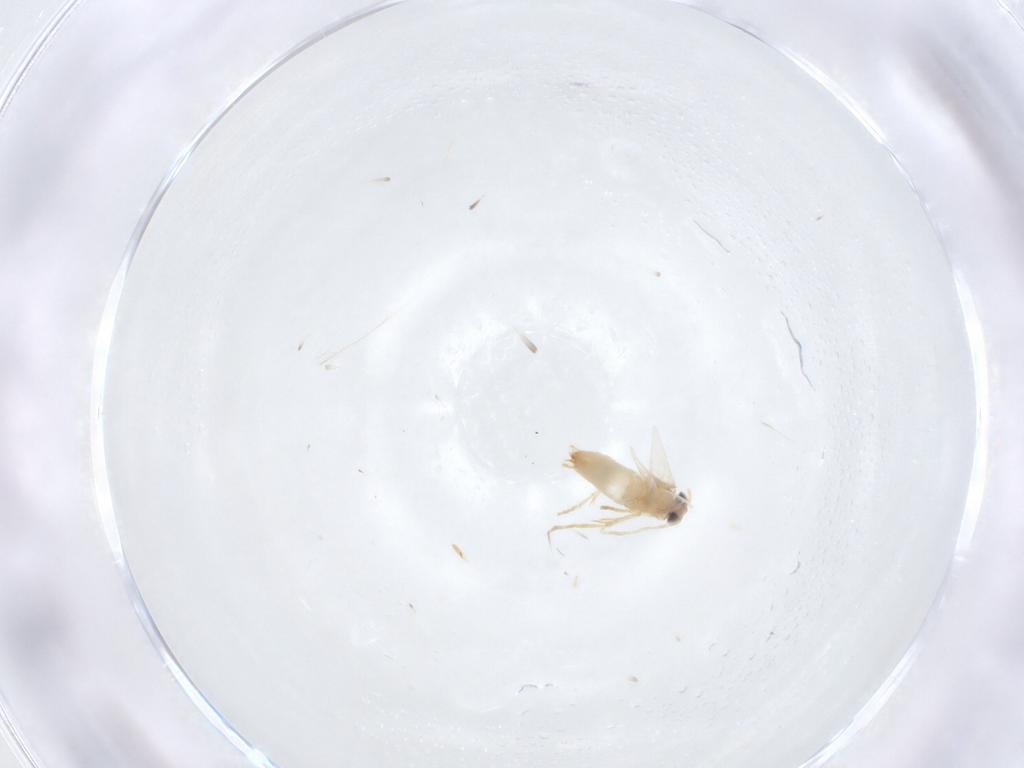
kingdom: Animalia
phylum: Arthropoda
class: Insecta
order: Lepidoptera
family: Crambidae
